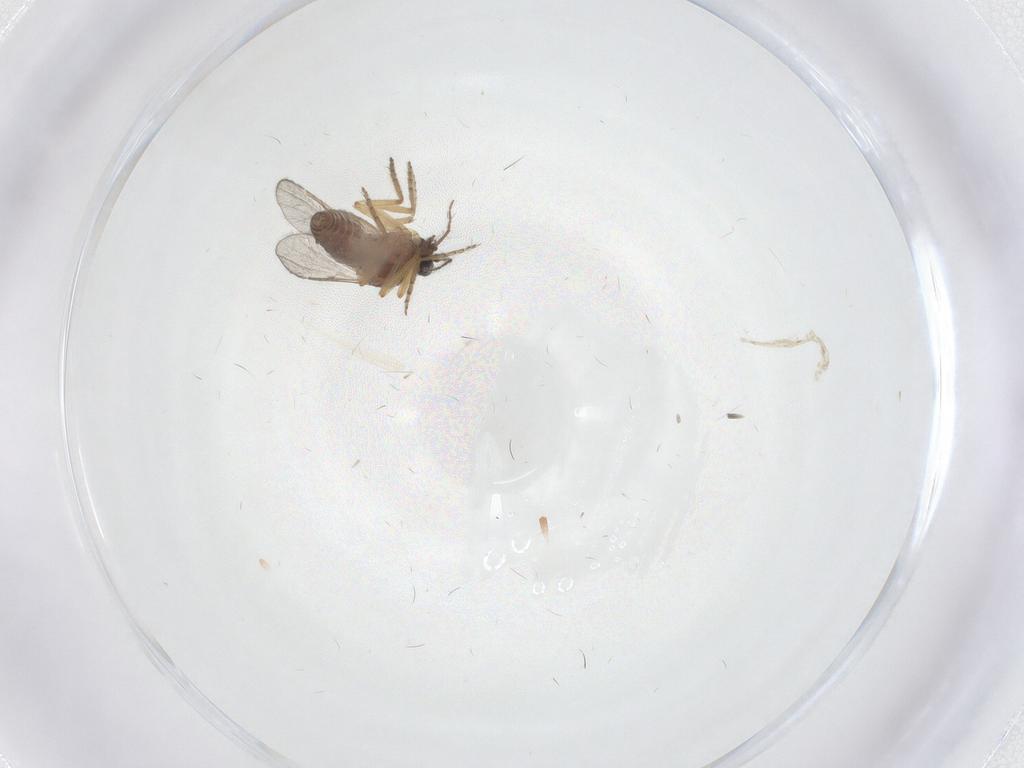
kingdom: Animalia
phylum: Arthropoda
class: Insecta
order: Diptera
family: Ceratopogonidae
